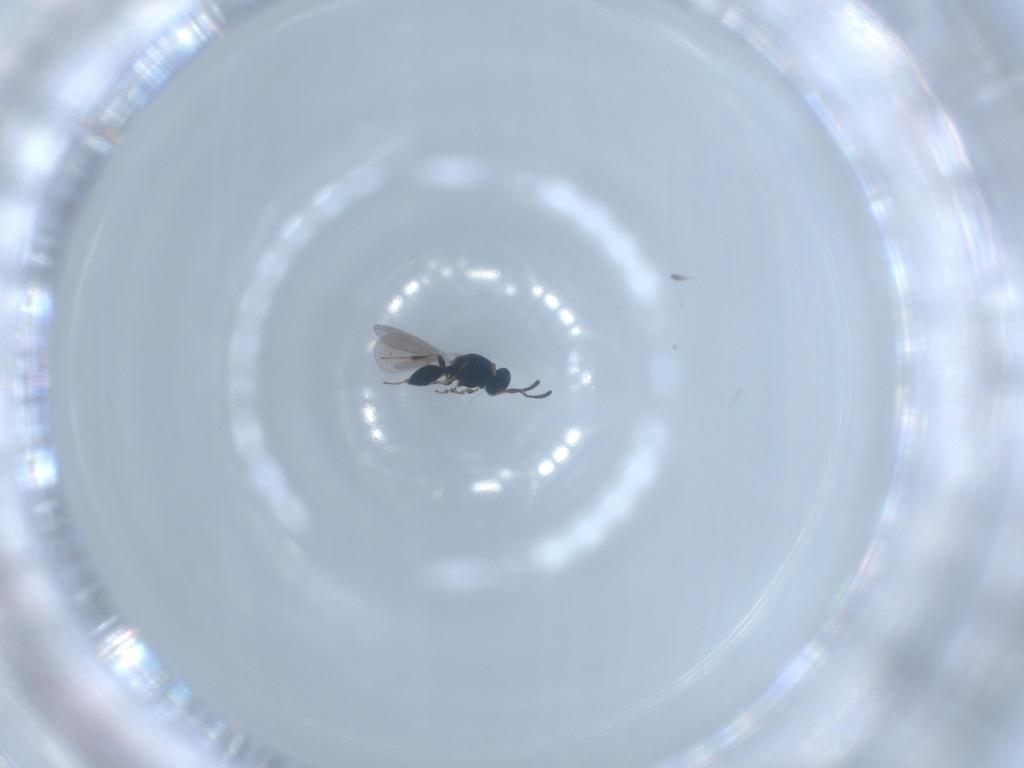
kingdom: Animalia
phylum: Arthropoda
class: Insecta
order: Hymenoptera
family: Platygastridae
